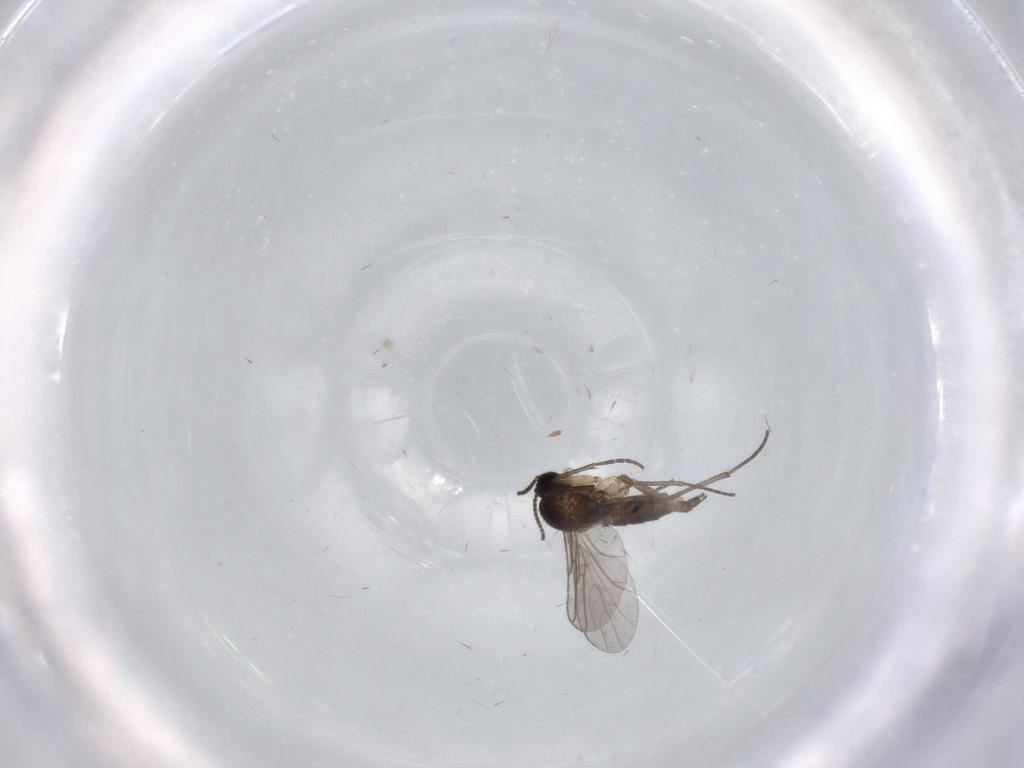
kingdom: Animalia
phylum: Arthropoda
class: Insecta
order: Diptera
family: Sciaridae
